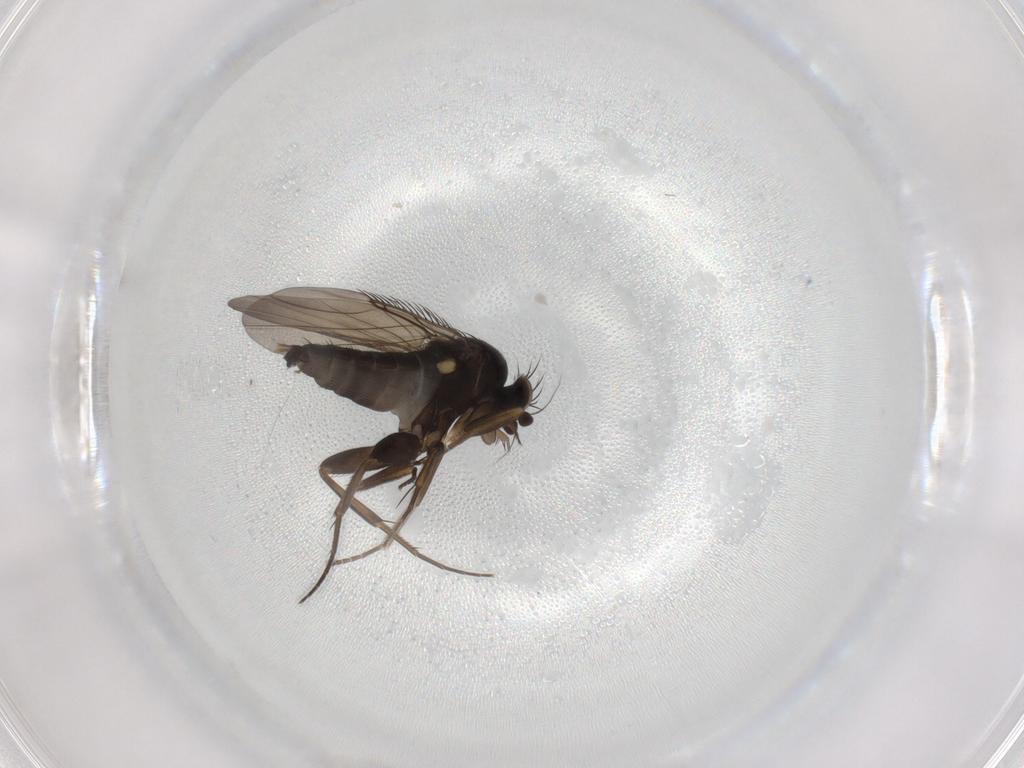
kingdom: Animalia
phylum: Arthropoda
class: Insecta
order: Diptera
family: Phoridae
